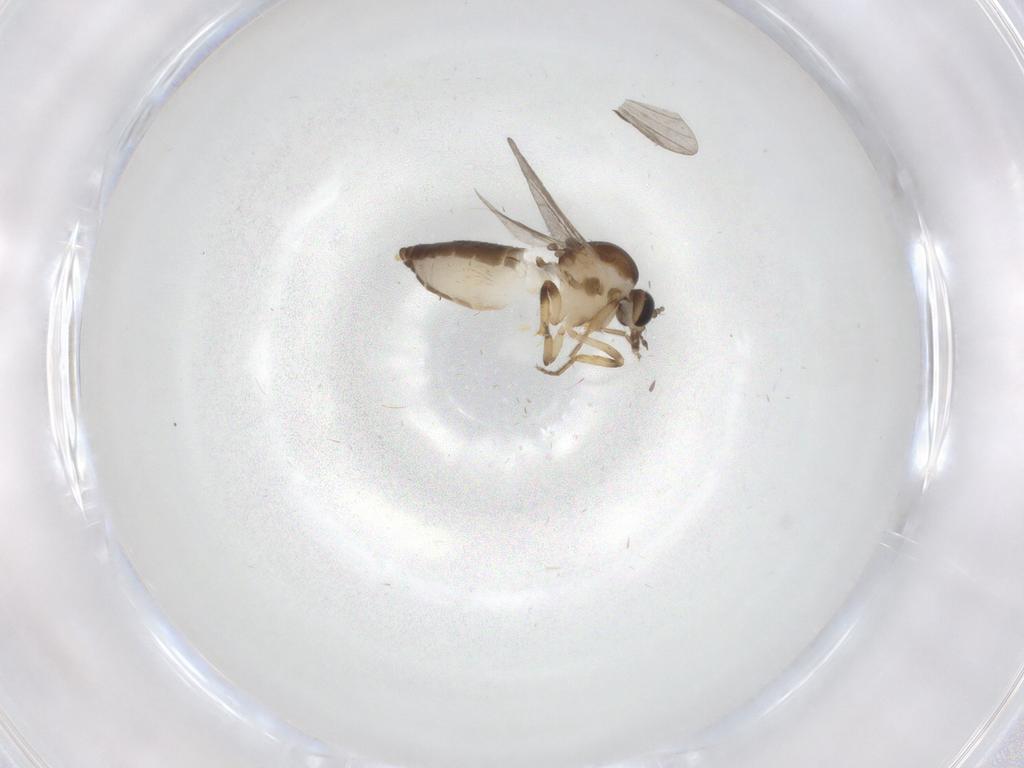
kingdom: Animalia
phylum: Arthropoda
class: Insecta
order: Diptera
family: Ceratopogonidae
